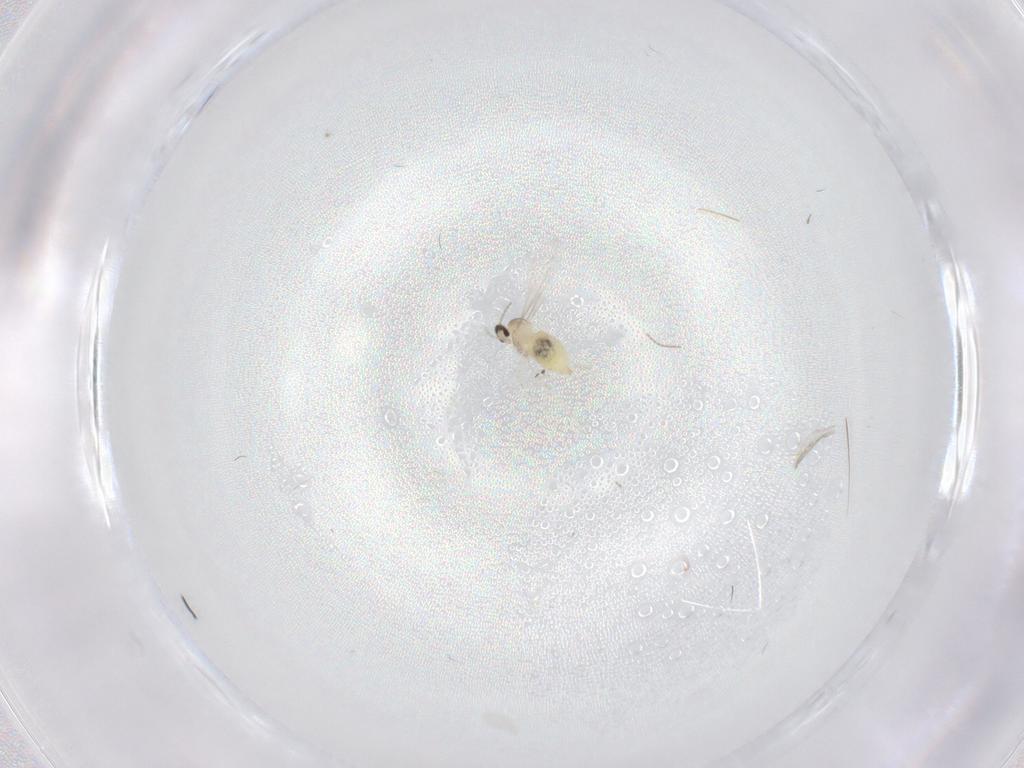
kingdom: Animalia
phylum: Arthropoda
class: Insecta
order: Diptera
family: Cecidomyiidae
